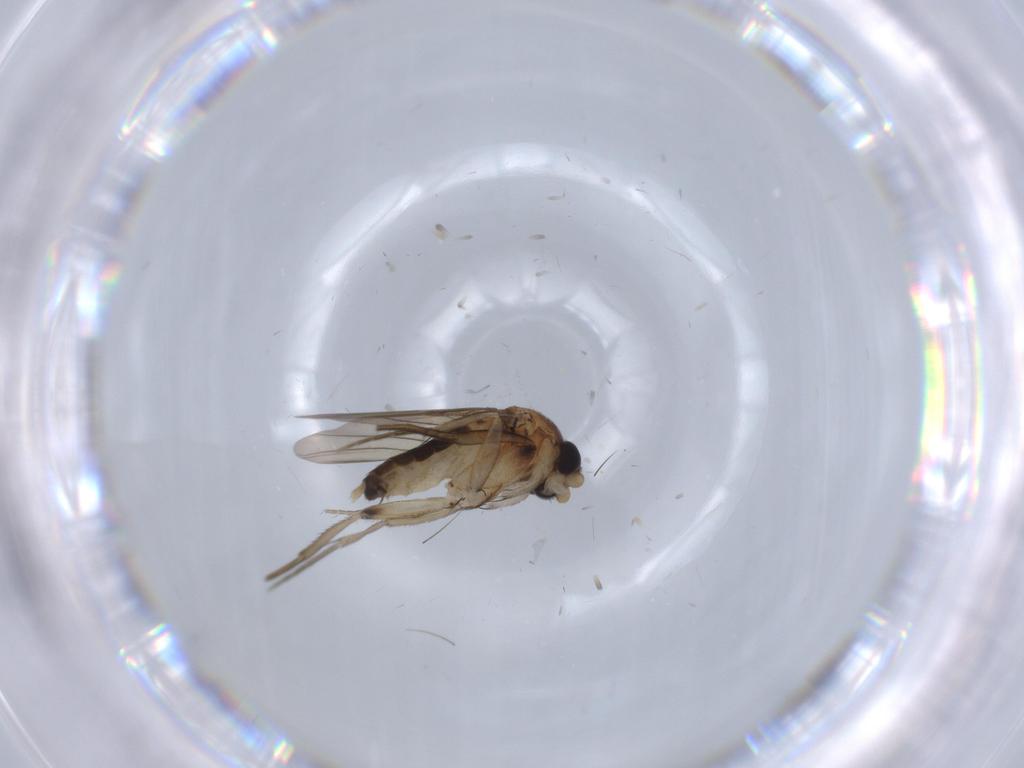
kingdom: Animalia
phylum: Arthropoda
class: Insecta
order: Diptera
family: Phoridae
